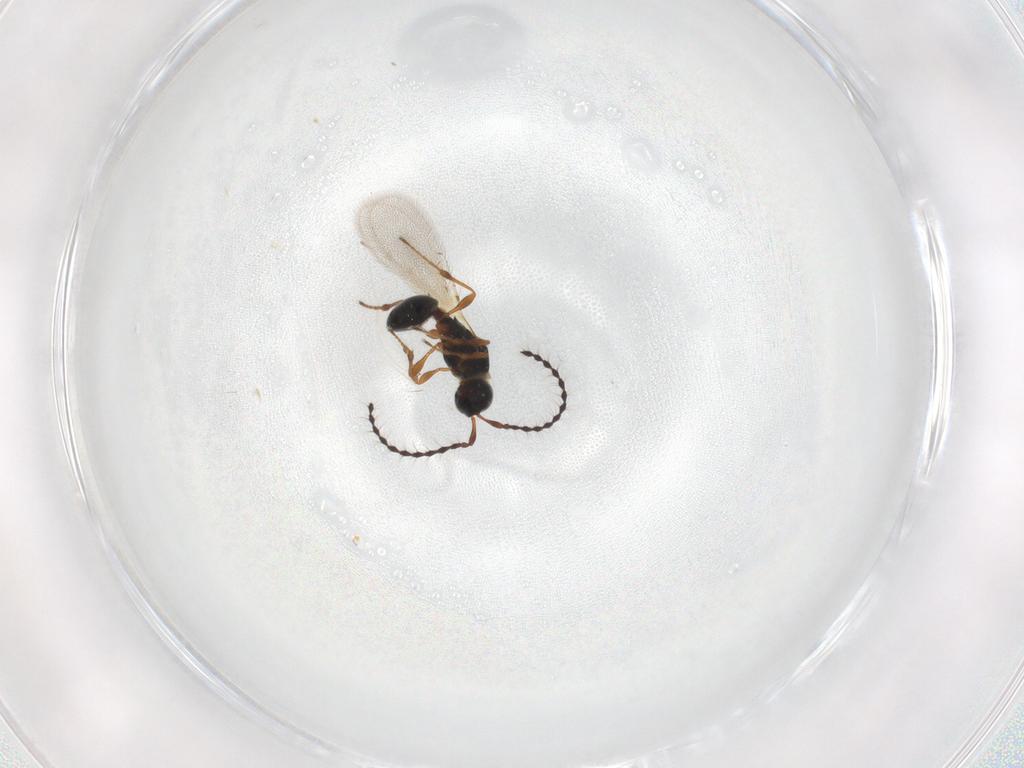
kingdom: Animalia
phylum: Arthropoda
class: Insecta
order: Hymenoptera
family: Diapriidae
